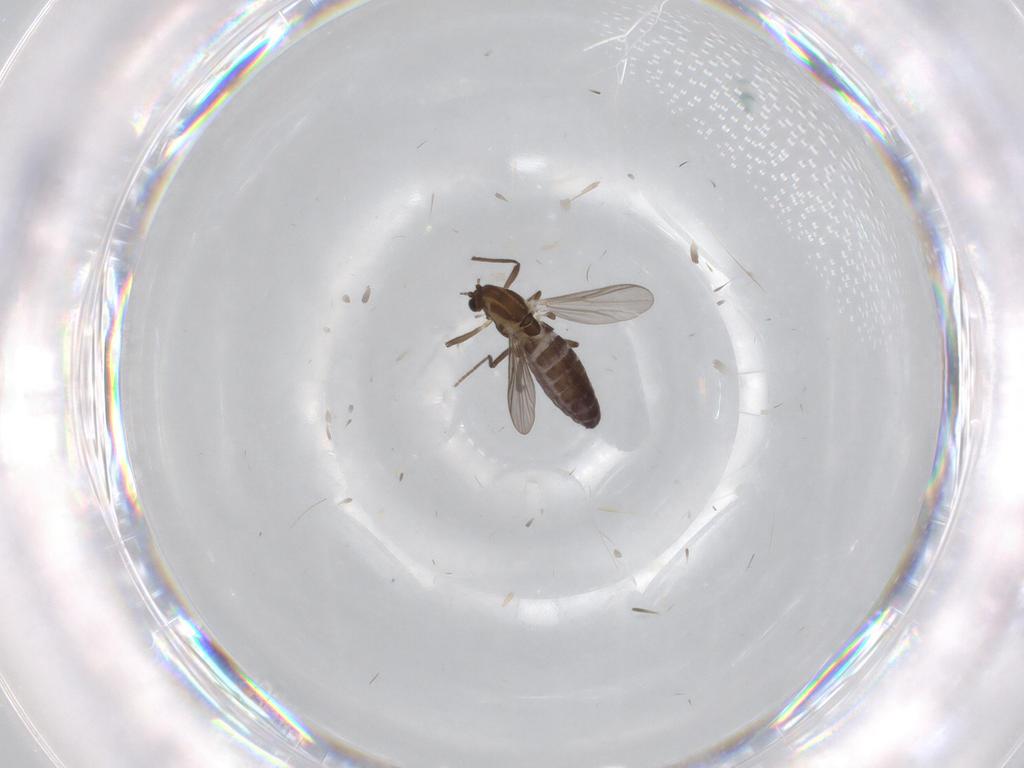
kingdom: Animalia
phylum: Arthropoda
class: Insecta
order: Diptera
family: Chironomidae
